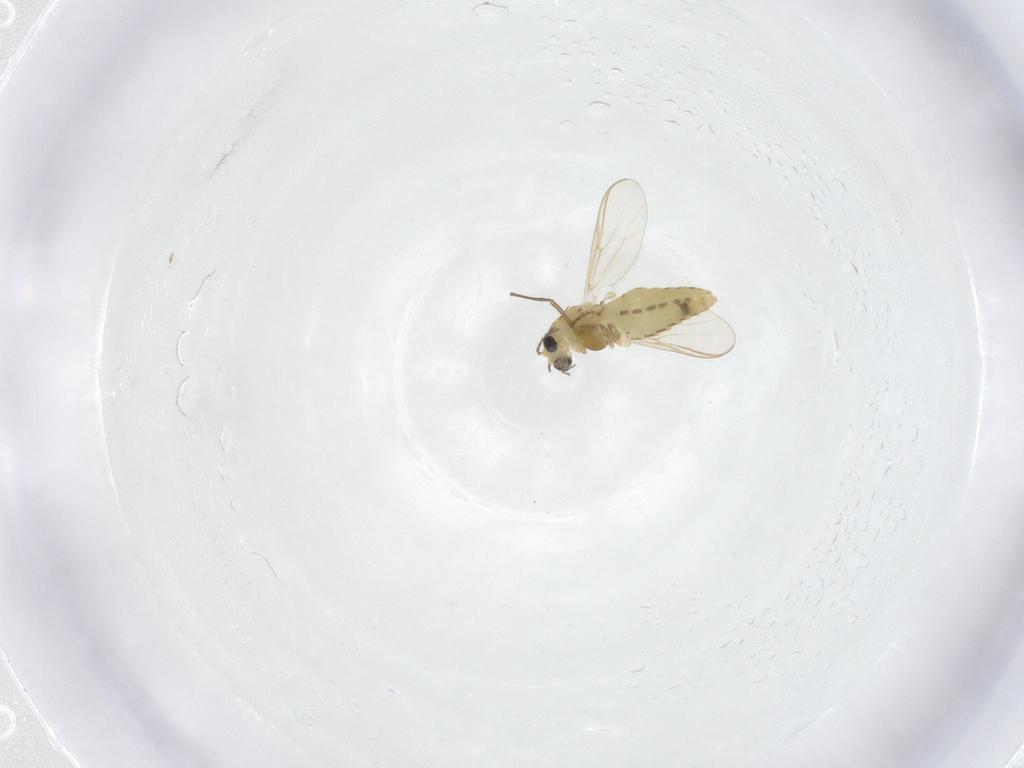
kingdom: Animalia
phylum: Arthropoda
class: Insecta
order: Diptera
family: Chironomidae
